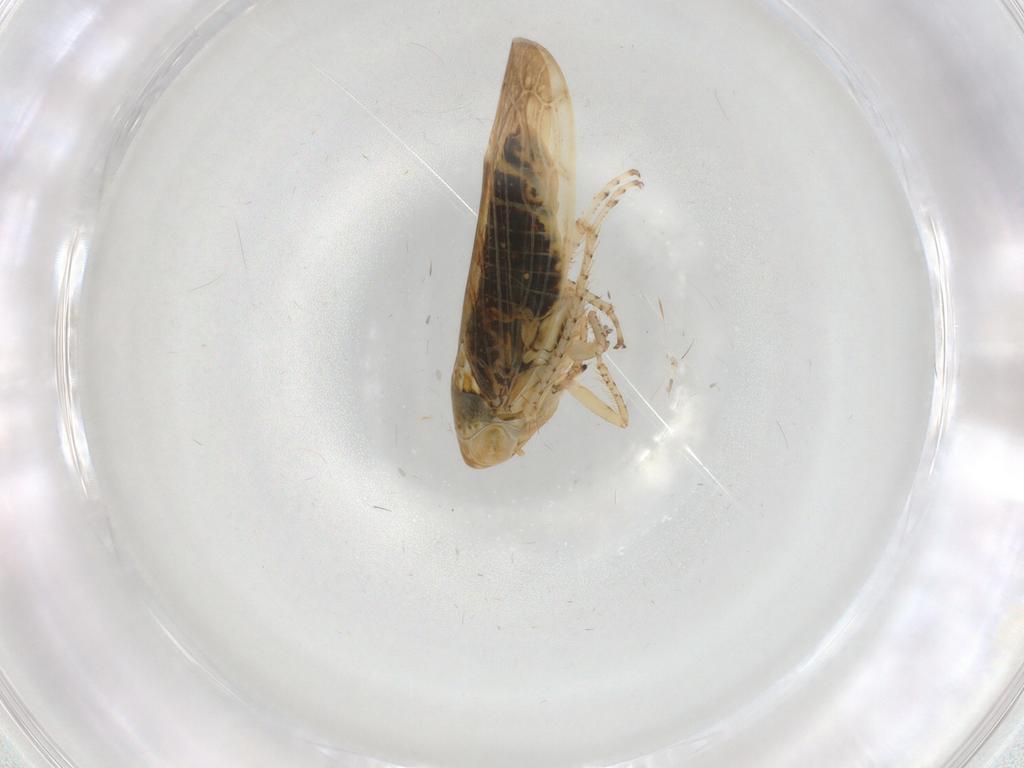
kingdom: Animalia
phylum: Arthropoda
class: Insecta
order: Hemiptera
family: Cicadellidae
